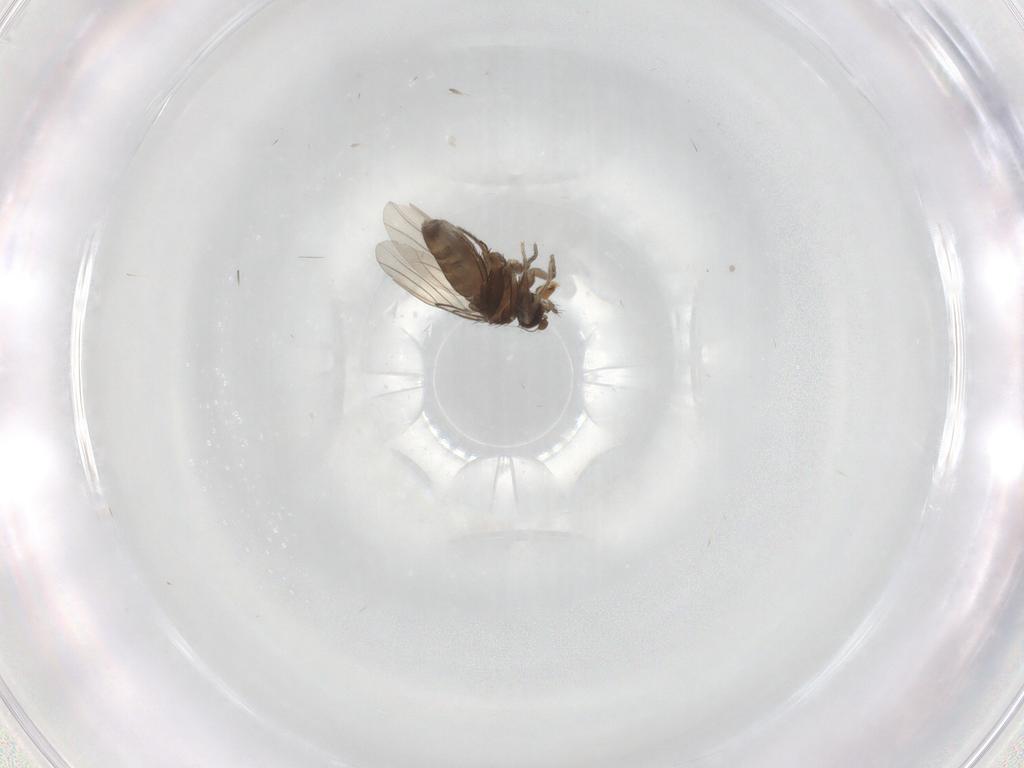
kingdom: Animalia
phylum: Arthropoda
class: Insecta
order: Diptera
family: Limoniidae
